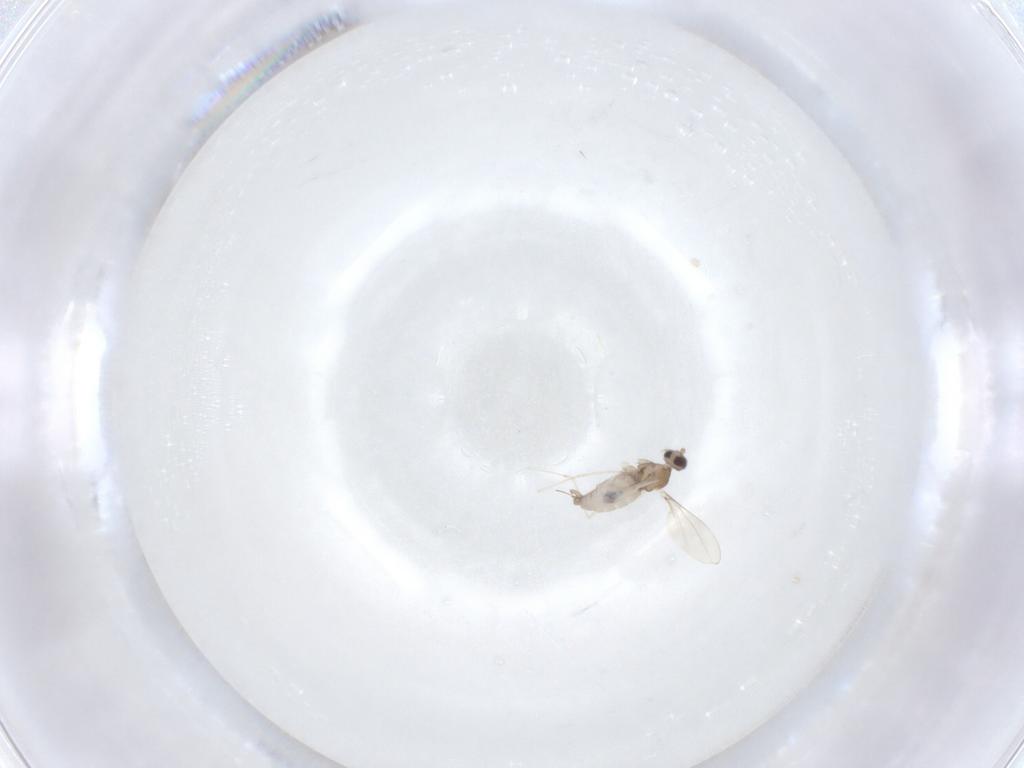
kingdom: Animalia
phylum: Arthropoda
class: Insecta
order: Diptera
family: Cecidomyiidae
